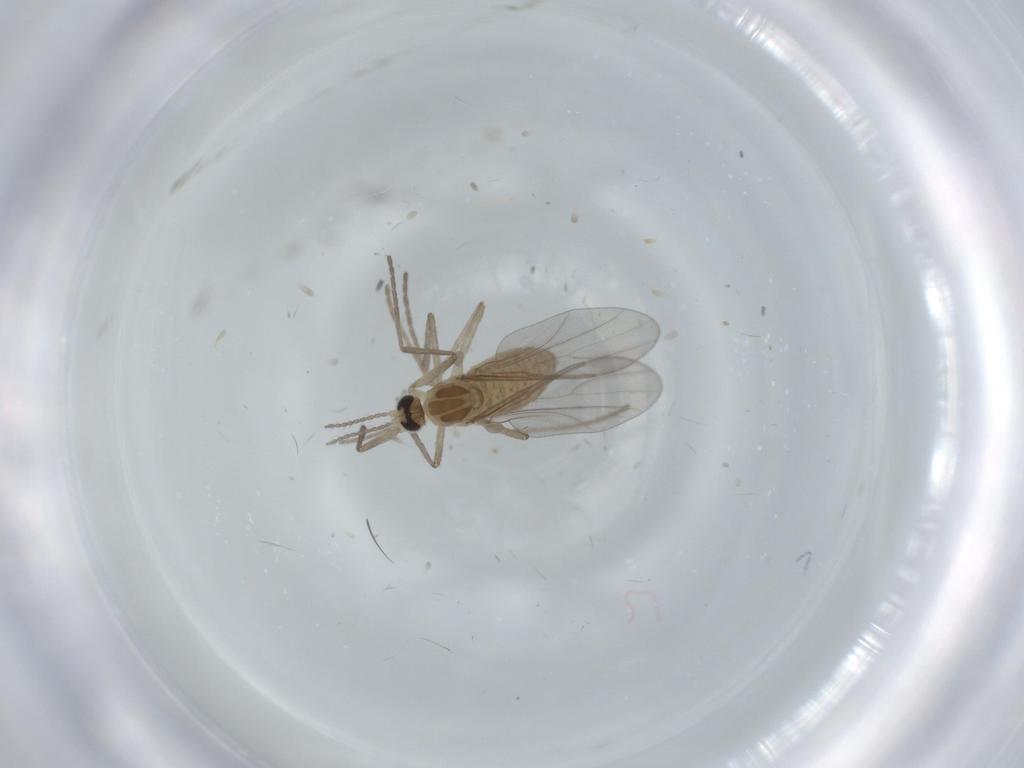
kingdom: Animalia
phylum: Arthropoda
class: Insecta
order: Diptera
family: Cecidomyiidae
